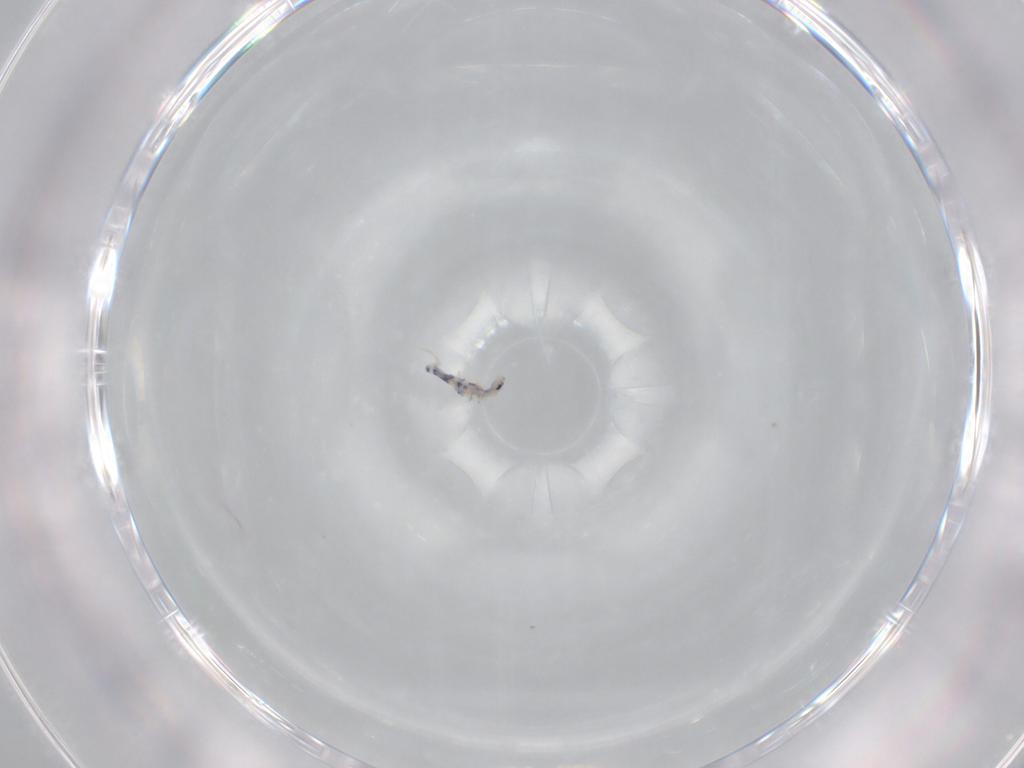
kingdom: Animalia
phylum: Arthropoda
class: Collembola
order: Entomobryomorpha
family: Entomobryidae
